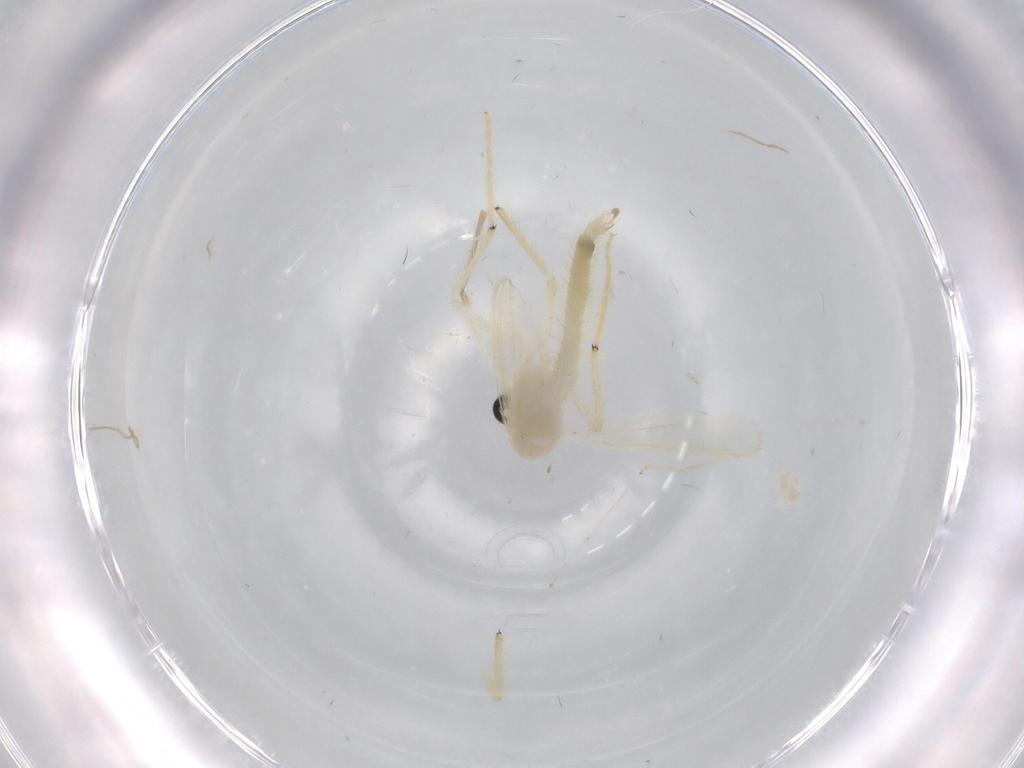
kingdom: Animalia
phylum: Arthropoda
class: Insecta
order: Diptera
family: Chironomidae
